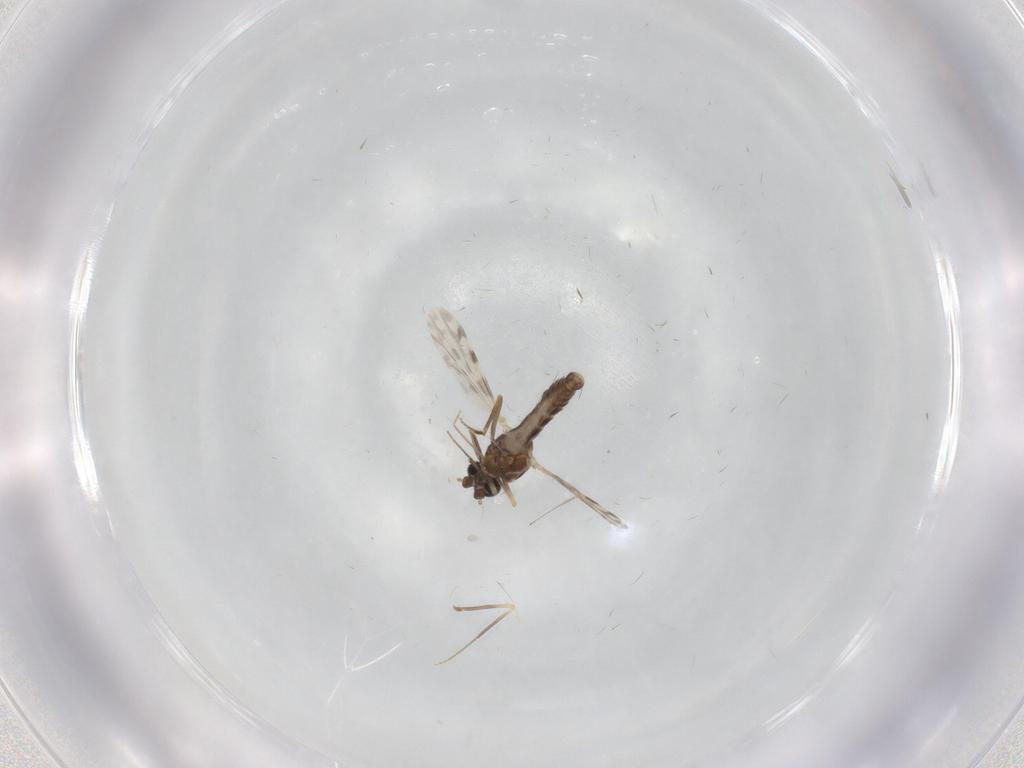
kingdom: Animalia
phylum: Arthropoda
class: Insecta
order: Diptera
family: Ceratopogonidae
